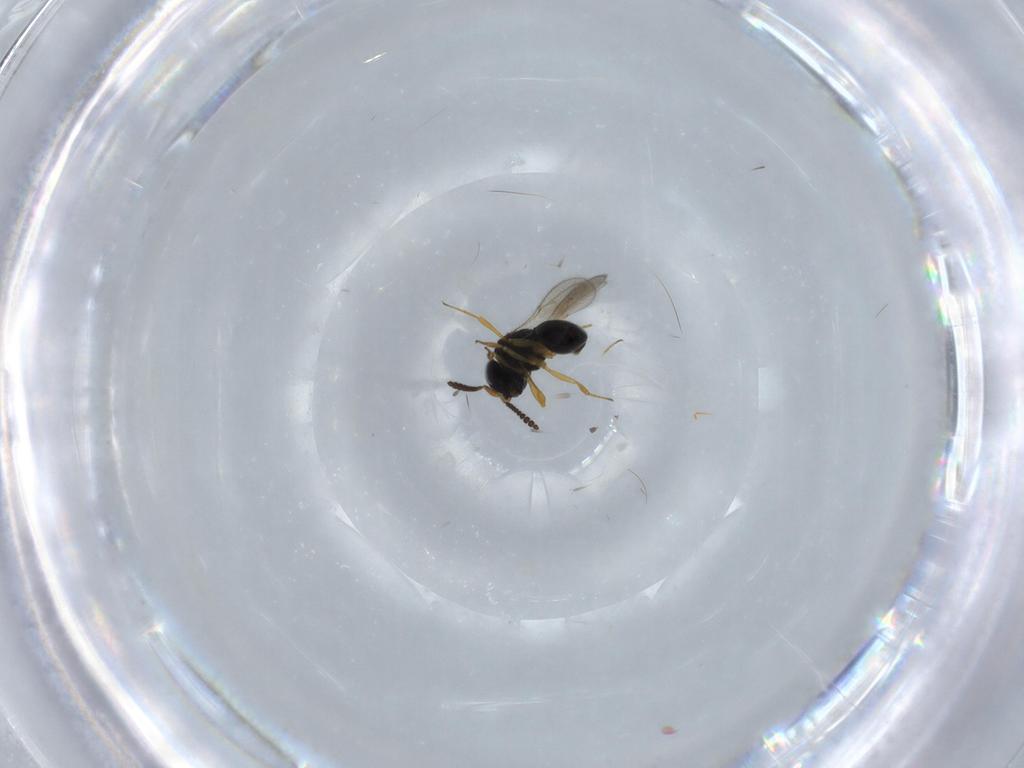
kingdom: Animalia
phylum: Arthropoda
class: Insecta
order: Hymenoptera
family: Scelionidae
